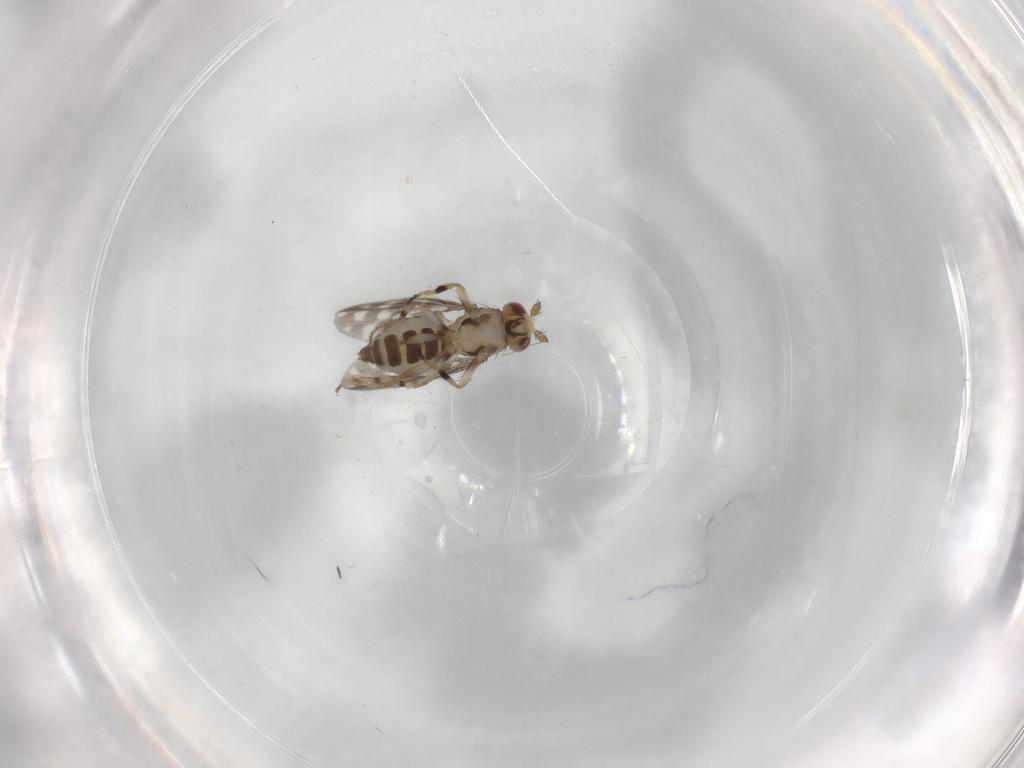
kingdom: Animalia
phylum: Arthropoda
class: Insecta
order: Diptera
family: Sphaeroceridae
